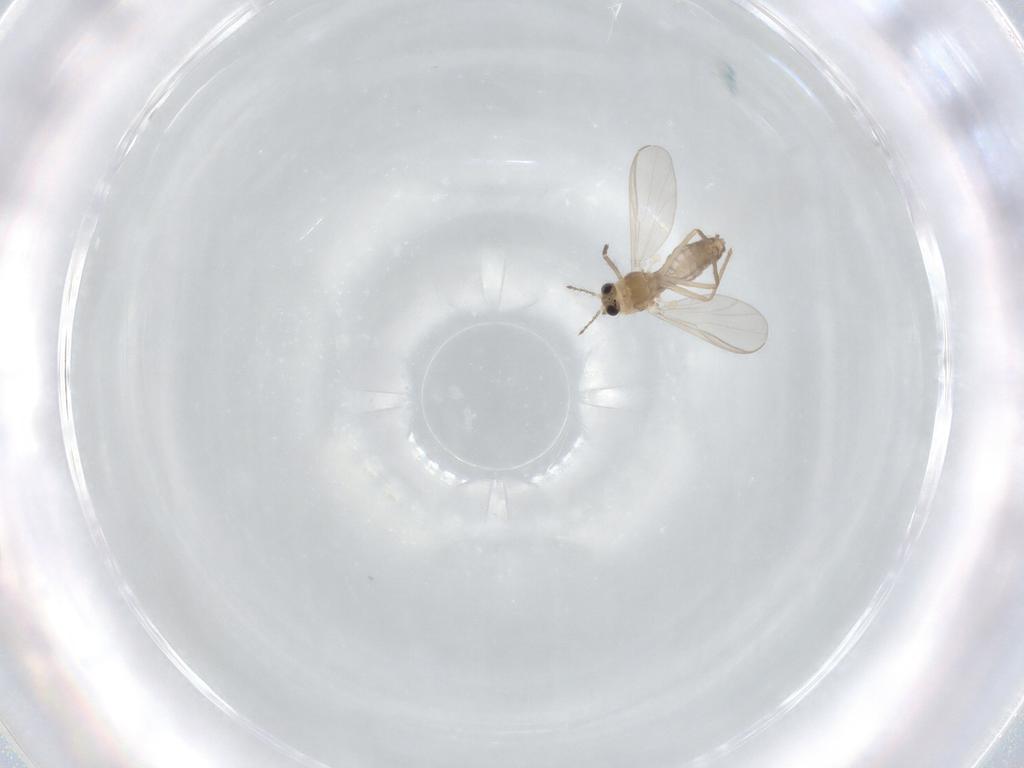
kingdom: Animalia
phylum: Arthropoda
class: Insecta
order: Diptera
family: Chironomidae
